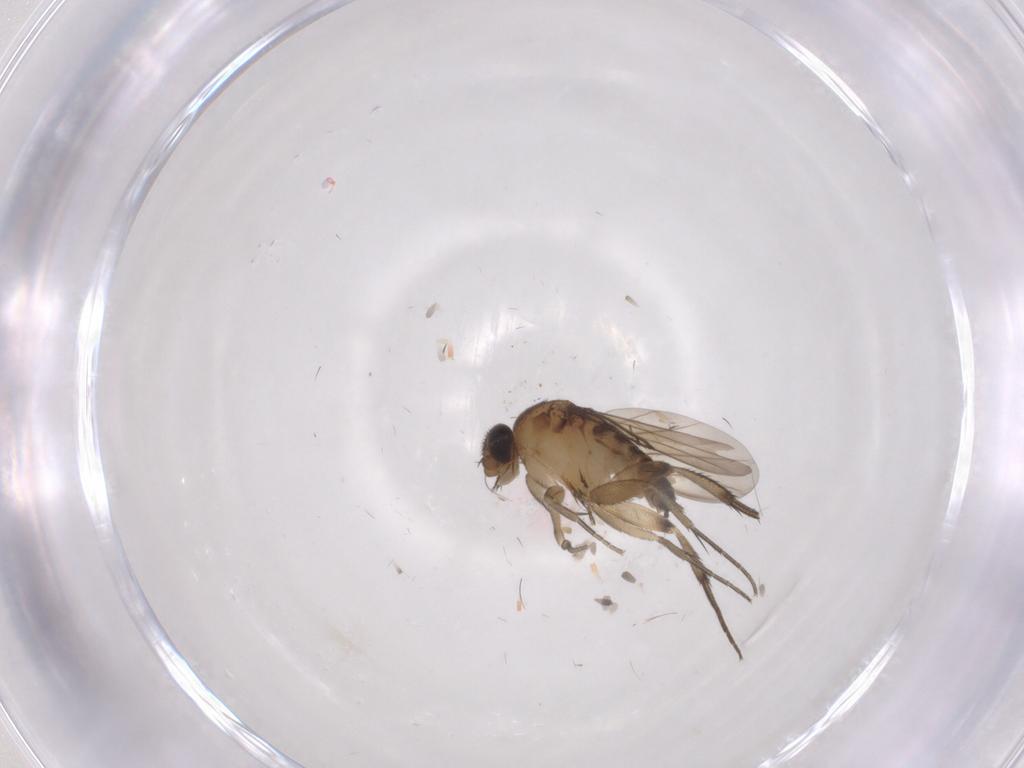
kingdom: Animalia
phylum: Arthropoda
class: Insecta
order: Diptera
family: Phoridae
